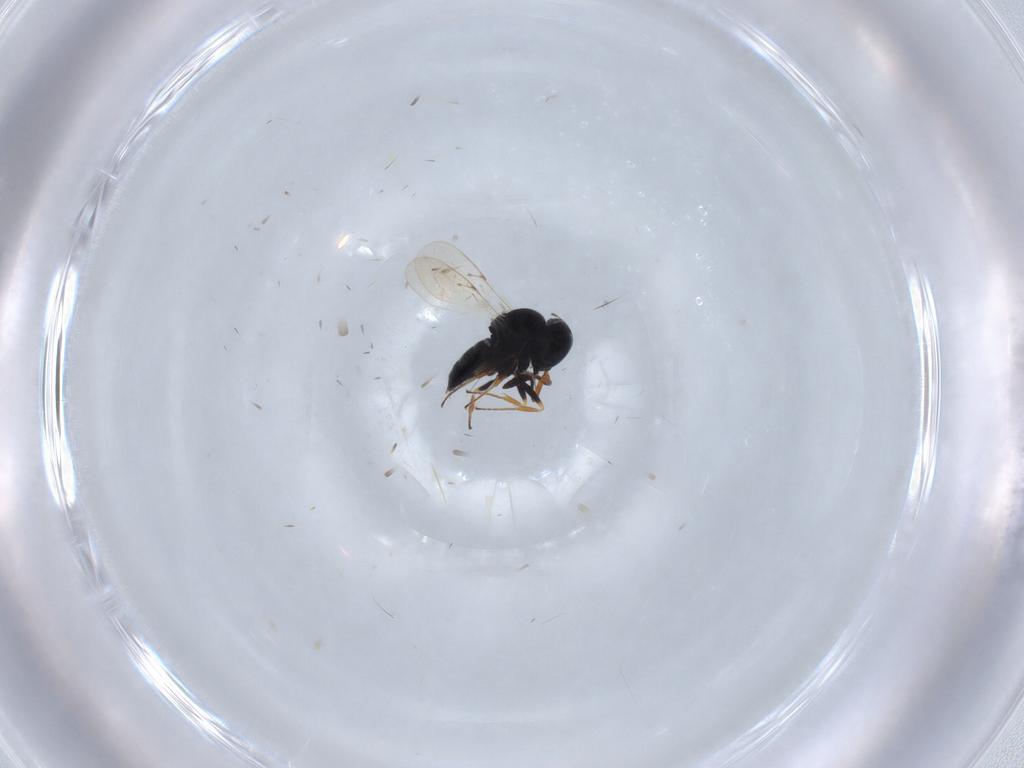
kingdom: Animalia
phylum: Arthropoda
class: Insecta
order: Coleoptera
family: Curculionidae
